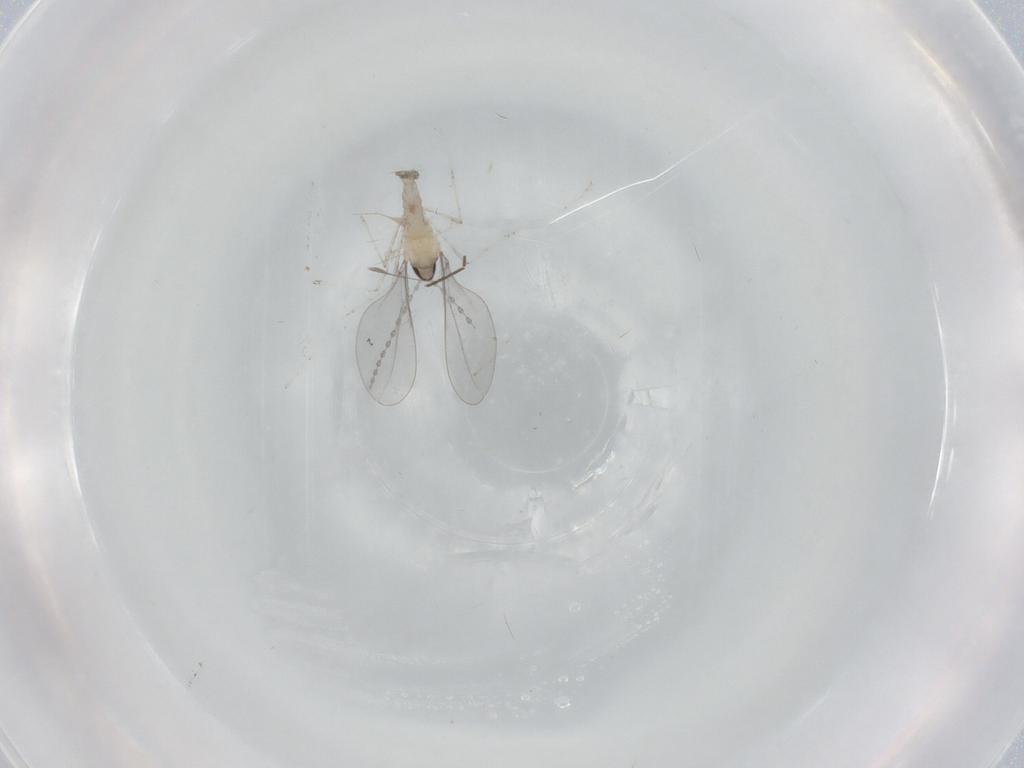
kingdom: Animalia
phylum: Arthropoda
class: Insecta
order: Diptera
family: Cecidomyiidae
